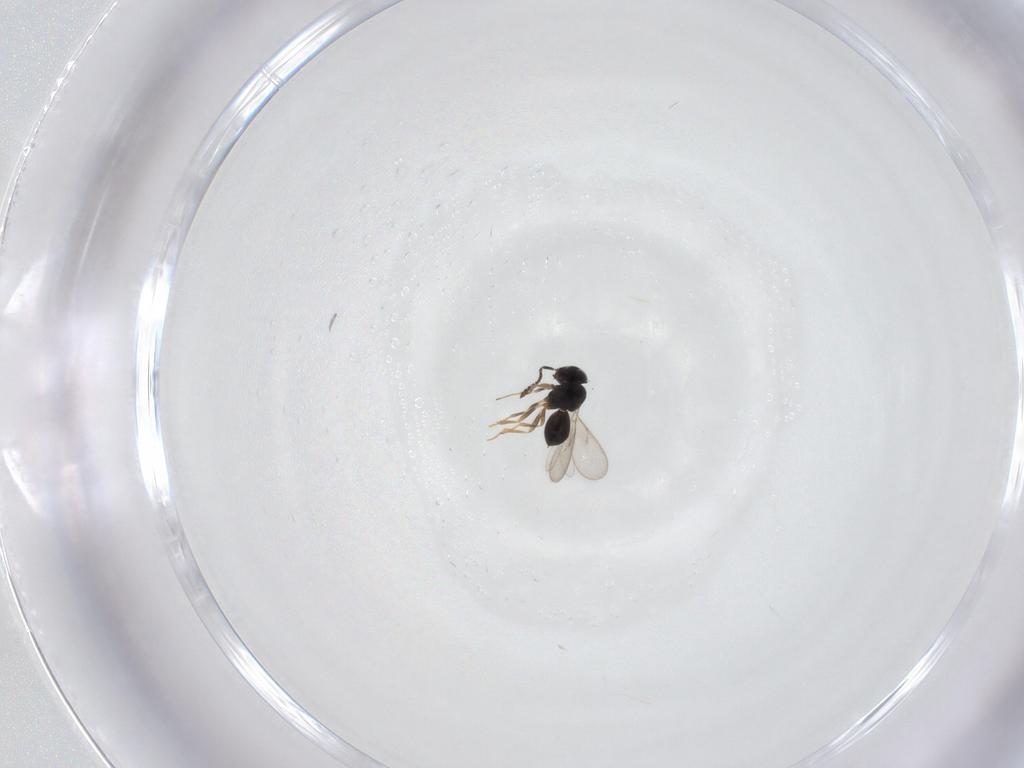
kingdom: Animalia
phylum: Arthropoda
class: Insecta
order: Hymenoptera
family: Scelionidae
